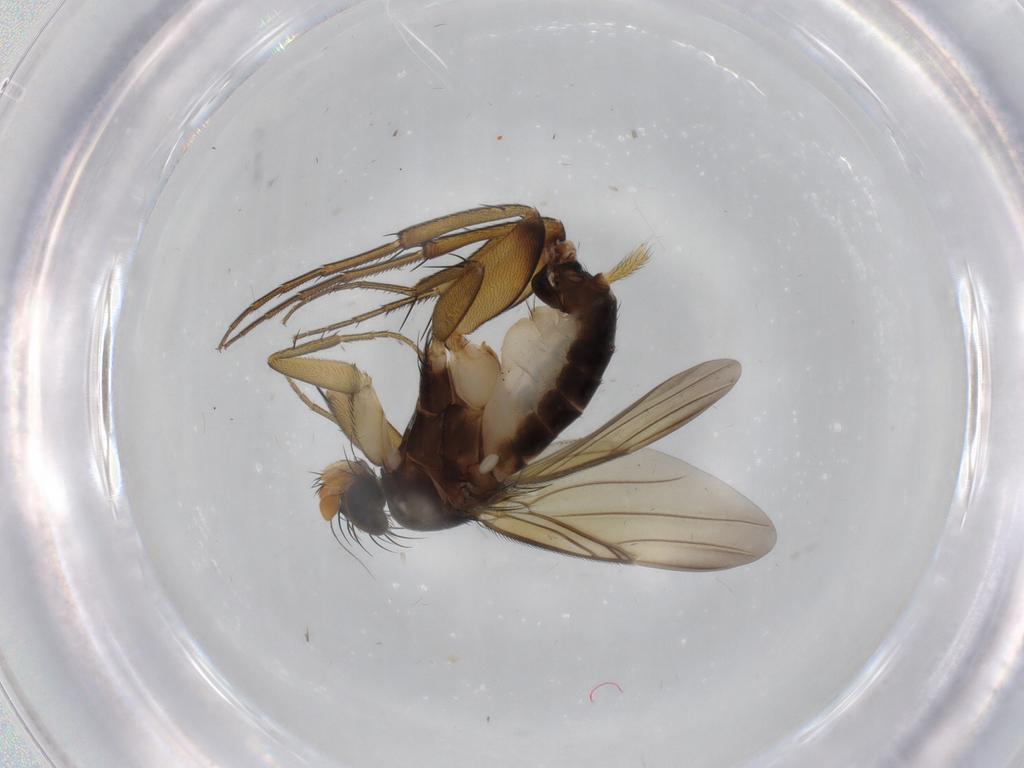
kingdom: Animalia
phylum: Arthropoda
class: Insecta
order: Diptera
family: Phoridae
